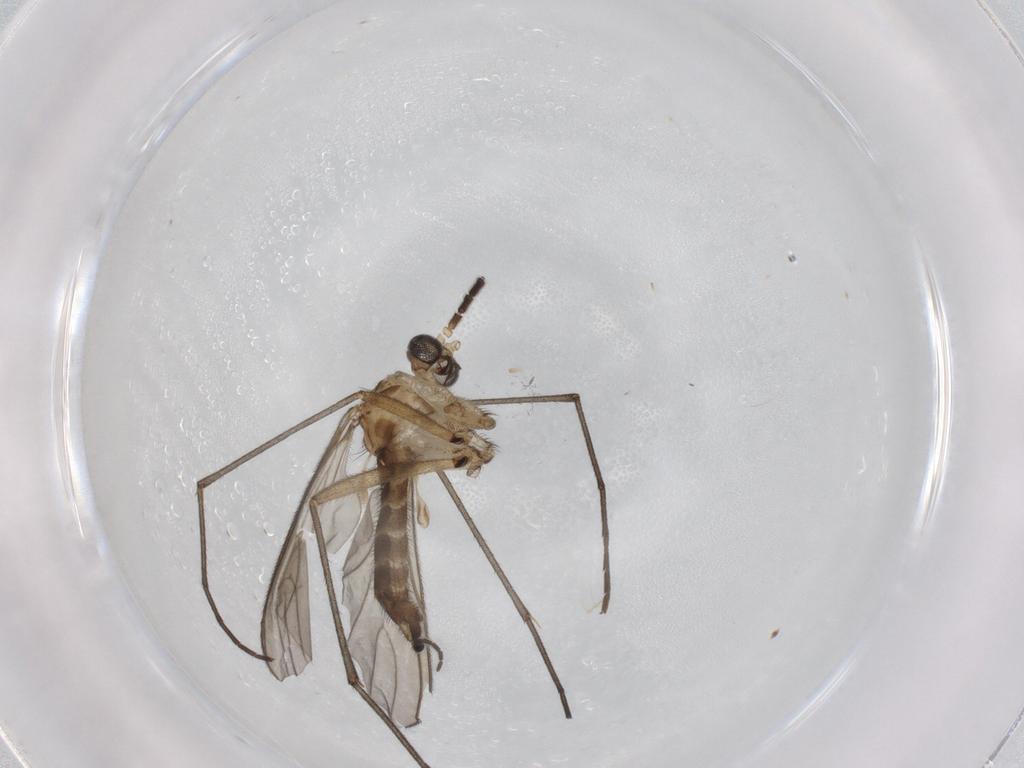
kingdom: Animalia
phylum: Arthropoda
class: Insecta
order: Diptera
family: Sciaridae
